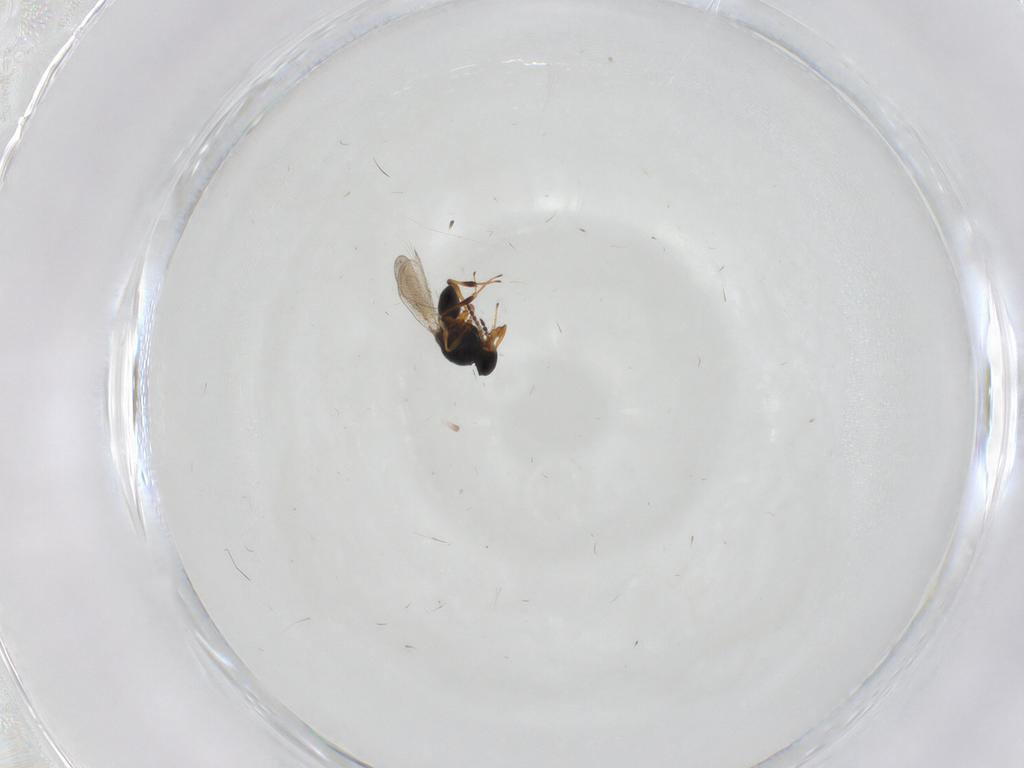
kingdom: Animalia
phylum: Arthropoda
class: Insecta
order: Hymenoptera
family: Platygastridae
